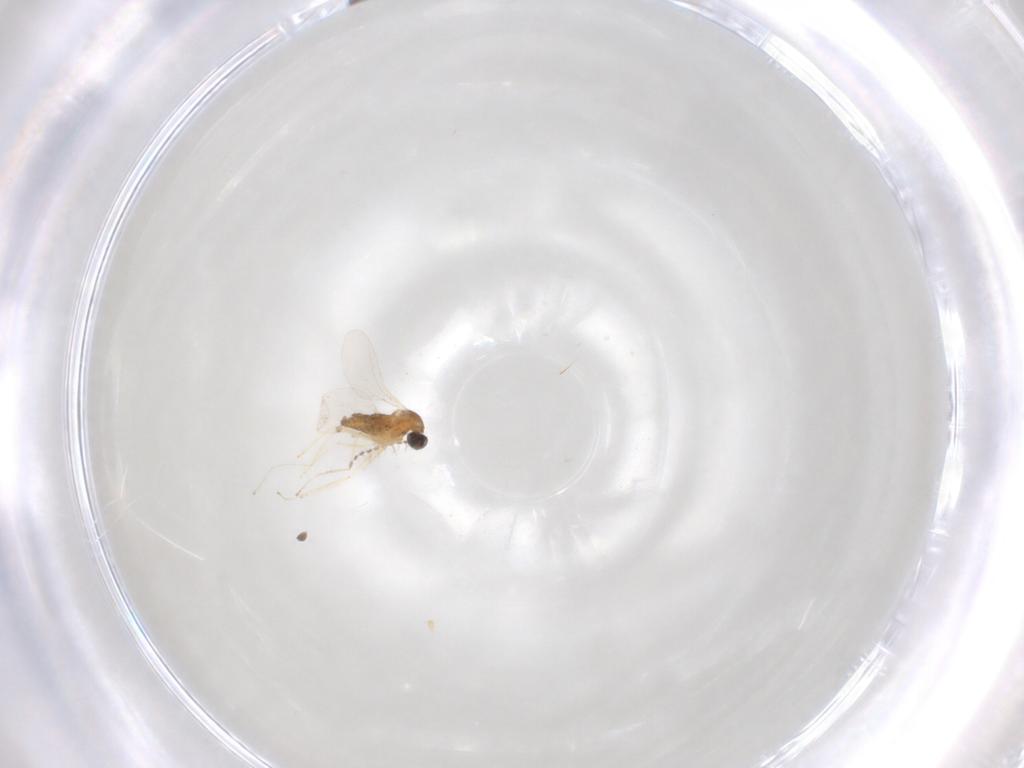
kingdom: Animalia
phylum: Arthropoda
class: Insecta
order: Diptera
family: Cecidomyiidae
